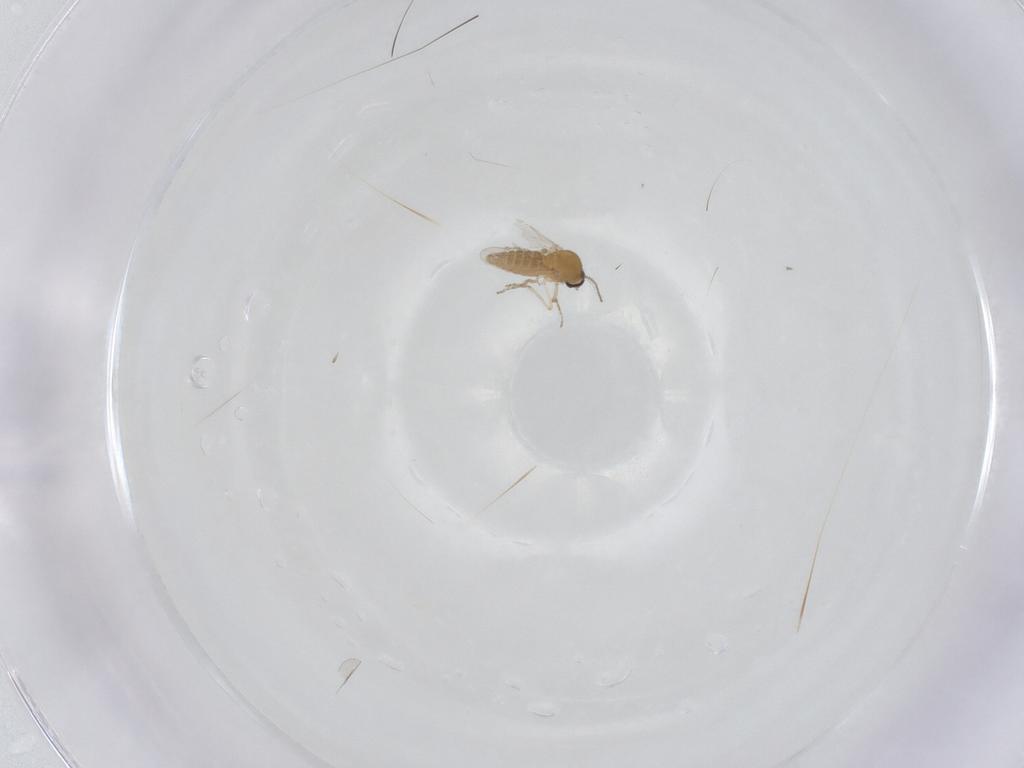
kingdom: Animalia
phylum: Arthropoda
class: Insecta
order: Diptera
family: Ceratopogonidae
